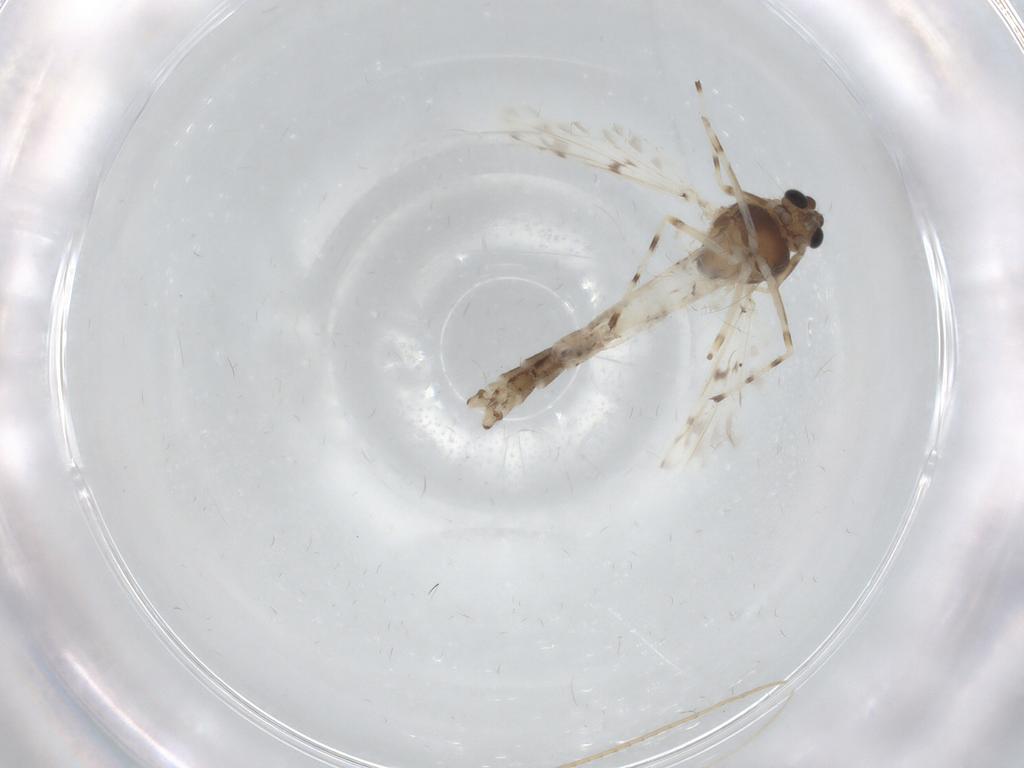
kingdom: Animalia
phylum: Arthropoda
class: Insecta
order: Diptera
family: Chironomidae
